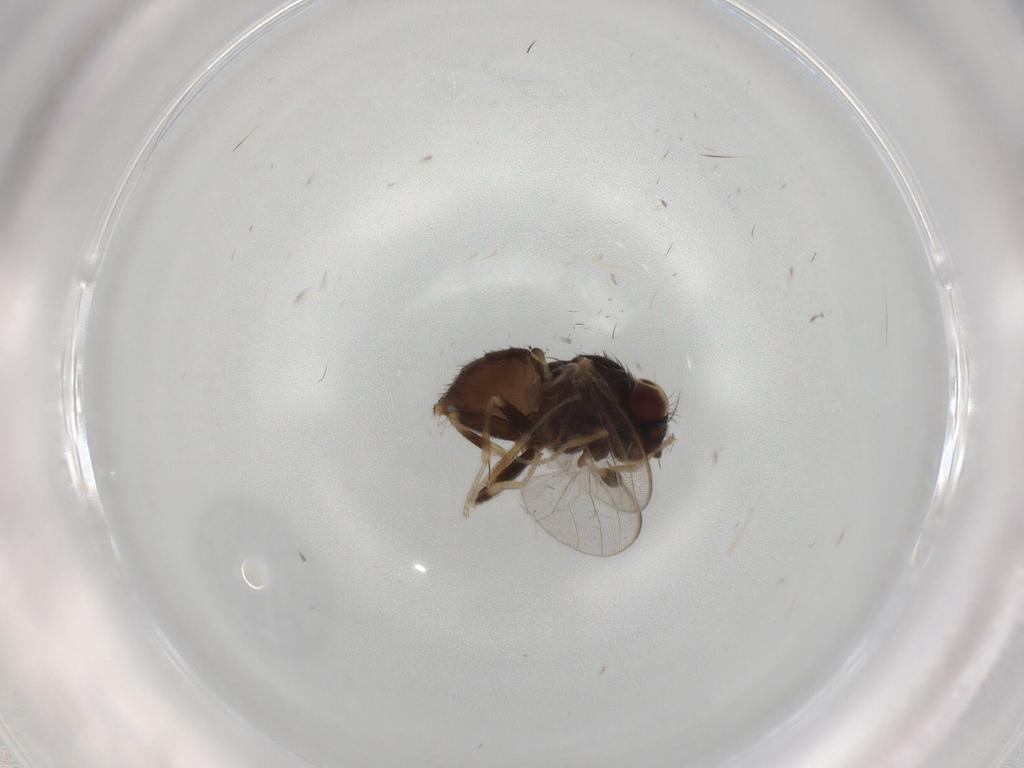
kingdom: Animalia
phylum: Arthropoda
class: Insecta
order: Diptera
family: Milichiidae
